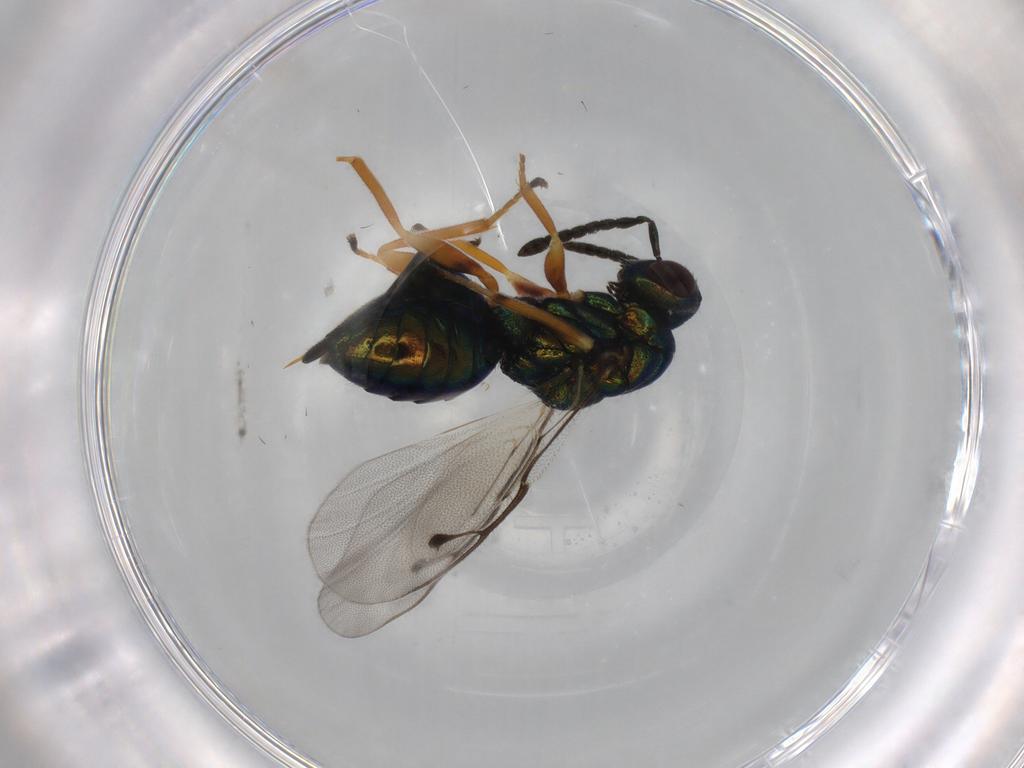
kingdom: Animalia
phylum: Arthropoda
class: Insecta
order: Hymenoptera
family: Pteromalidae
